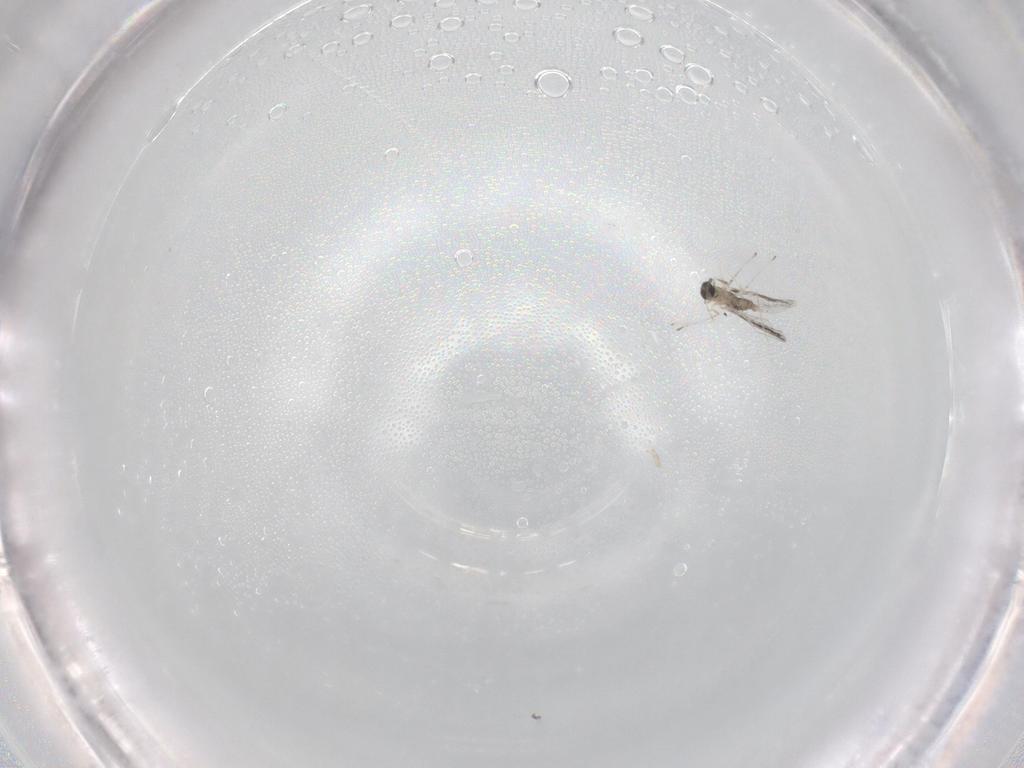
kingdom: Animalia
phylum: Arthropoda
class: Insecta
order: Diptera
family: Cecidomyiidae
